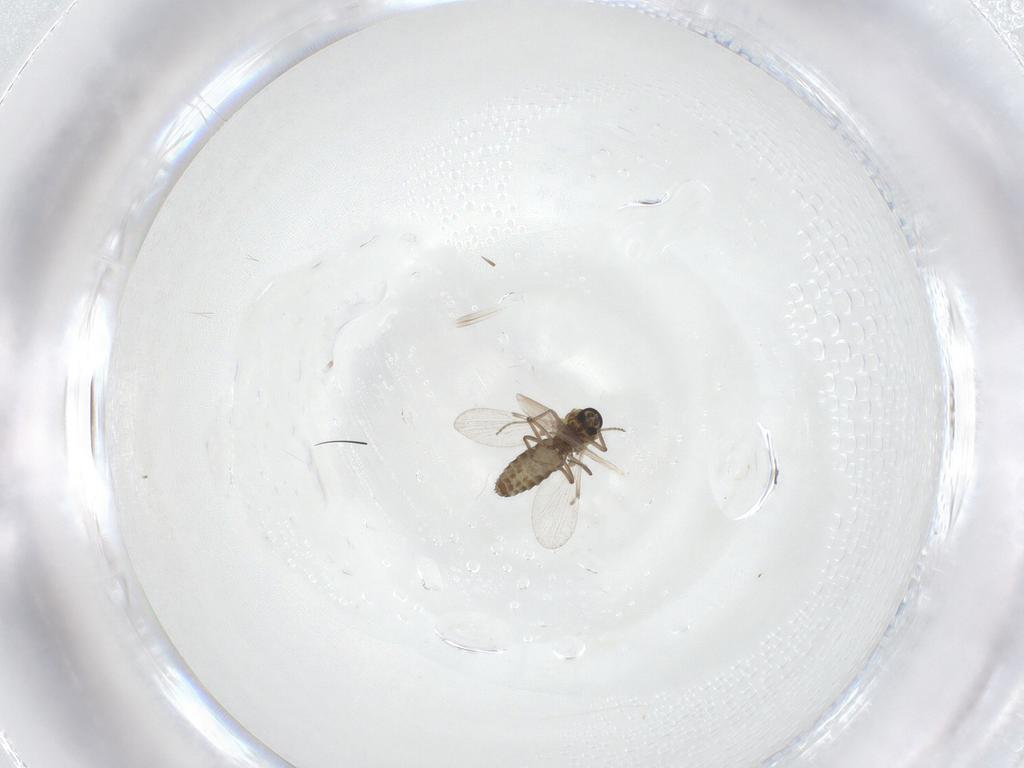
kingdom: Animalia
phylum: Arthropoda
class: Insecta
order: Diptera
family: Ceratopogonidae
